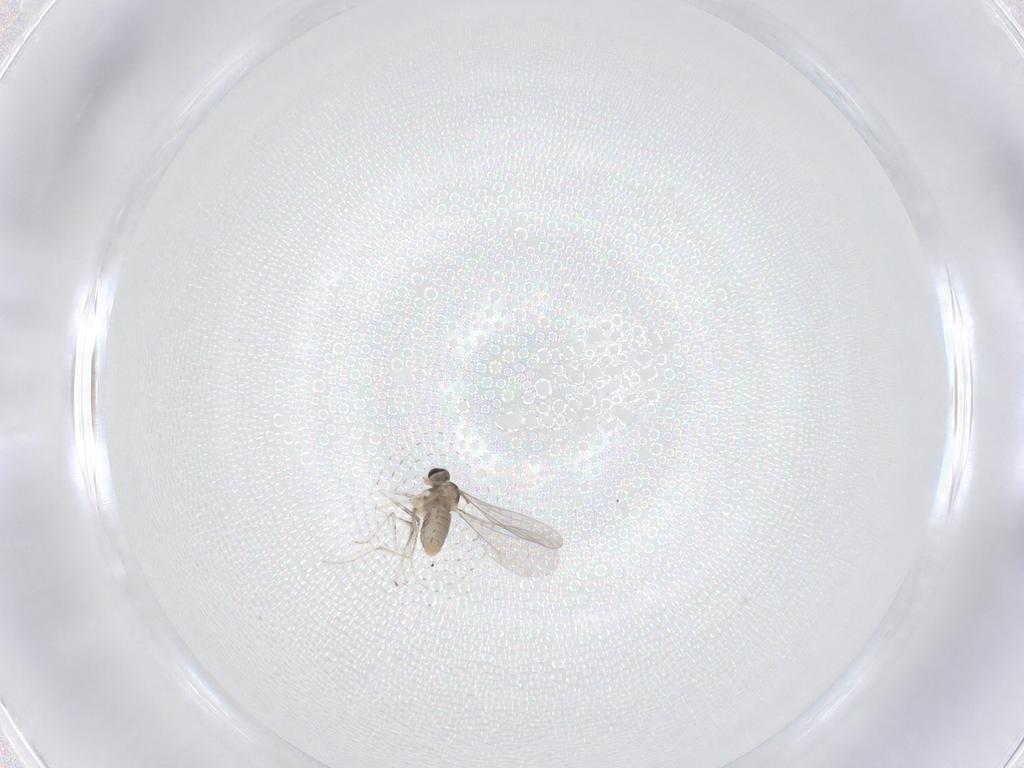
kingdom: Animalia
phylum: Arthropoda
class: Insecta
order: Diptera
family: Cecidomyiidae
